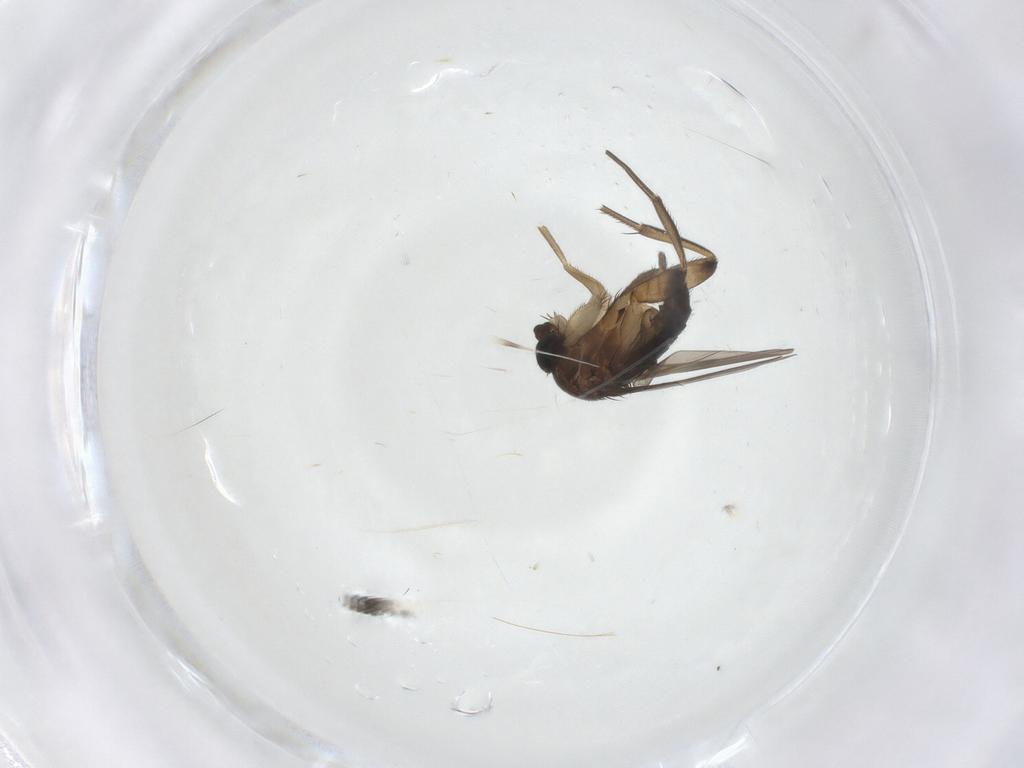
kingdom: Animalia
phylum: Arthropoda
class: Insecta
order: Diptera
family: Phoridae
